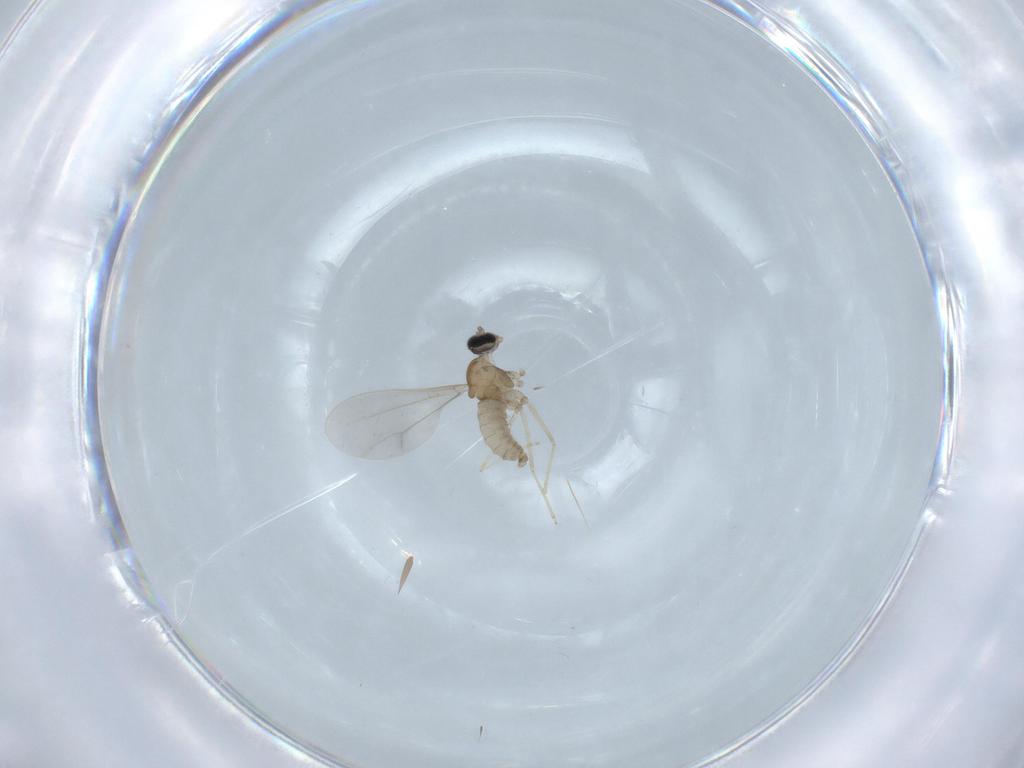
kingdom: Animalia
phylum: Arthropoda
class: Insecta
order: Diptera
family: Cecidomyiidae
